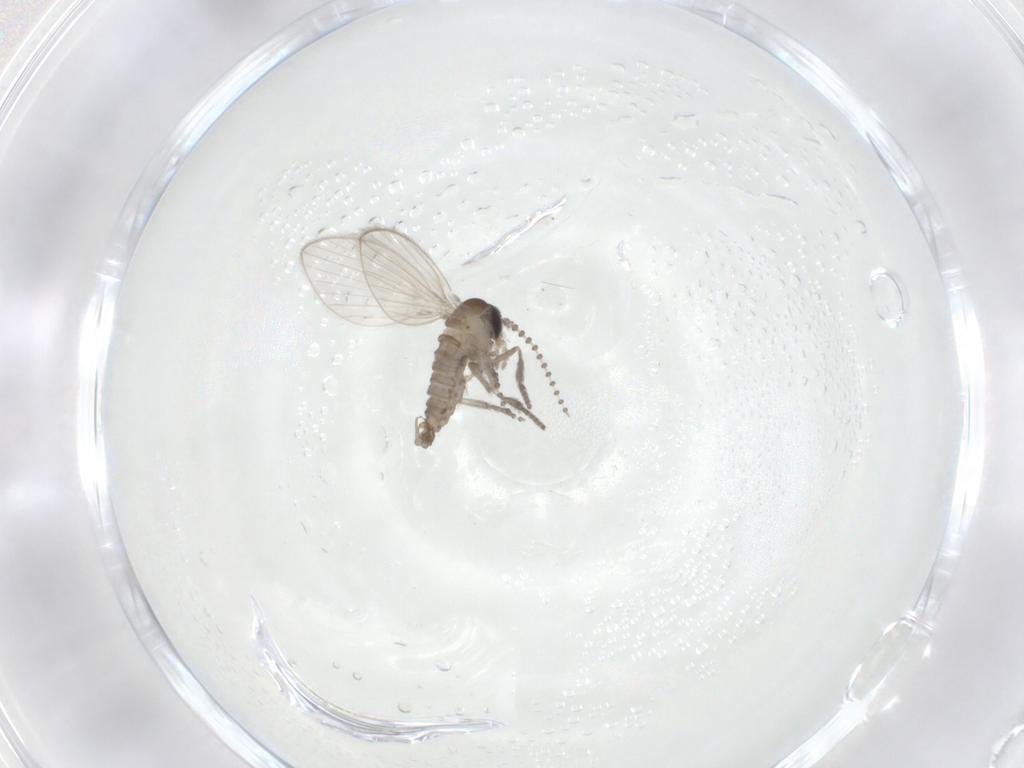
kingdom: Animalia
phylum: Arthropoda
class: Insecta
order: Diptera
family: Psychodidae
